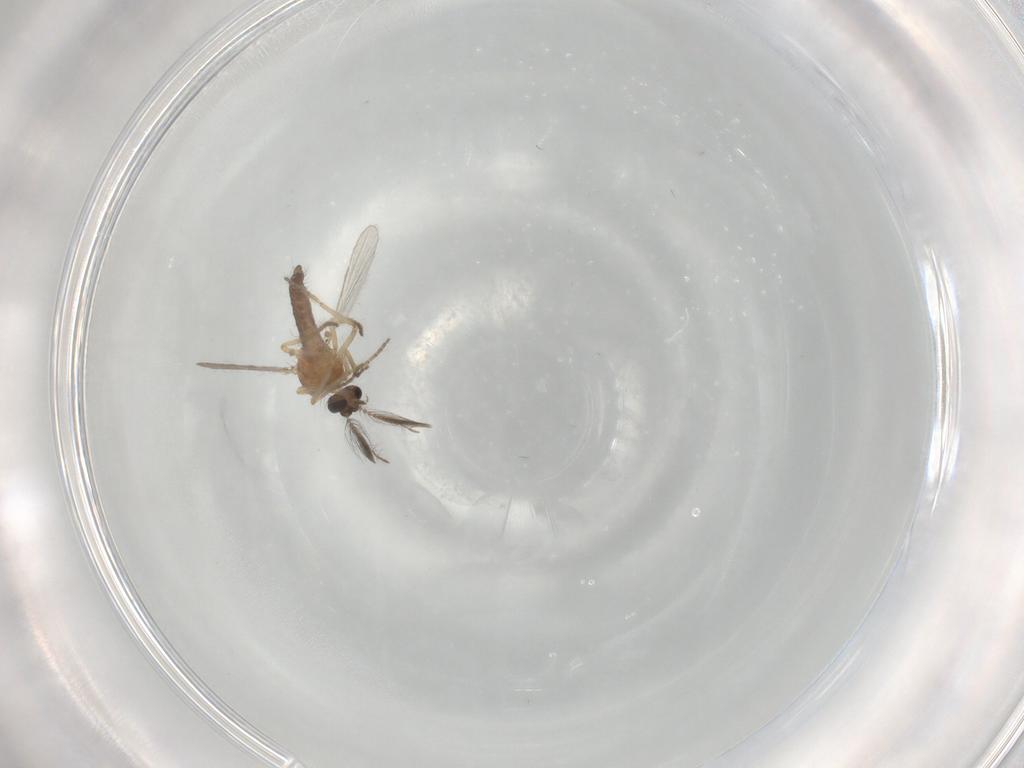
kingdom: Animalia
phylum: Arthropoda
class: Insecta
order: Diptera
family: Ceratopogonidae
